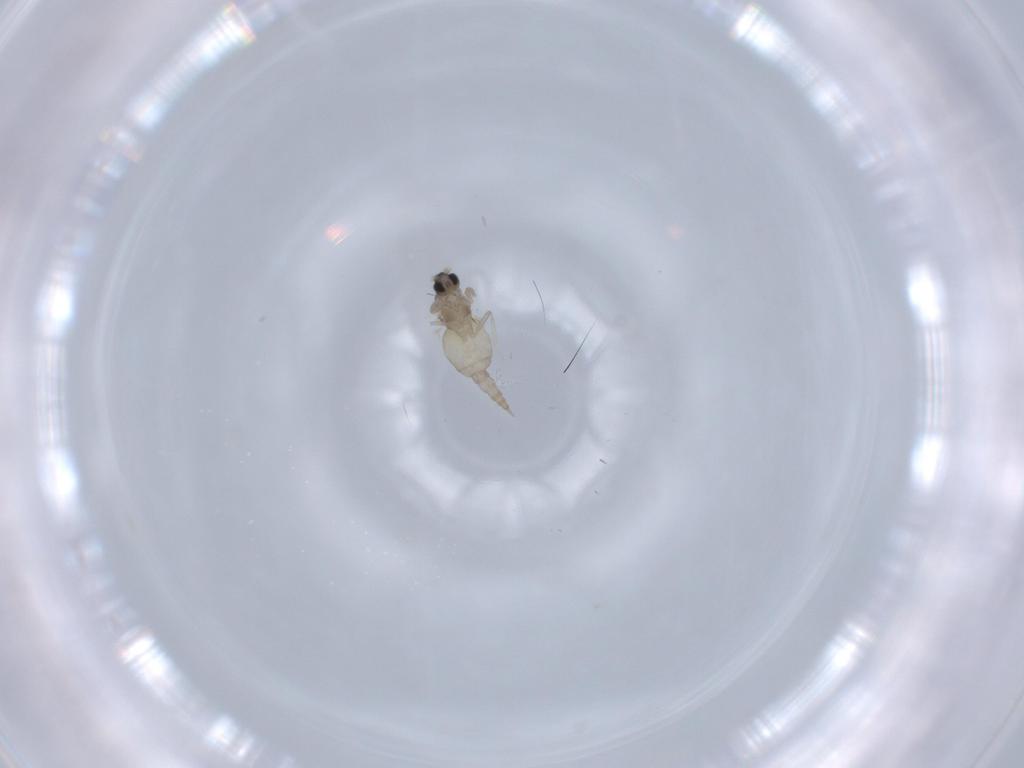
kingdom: Animalia
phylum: Arthropoda
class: Insecta
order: Diptera
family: Cecidomyiidae
